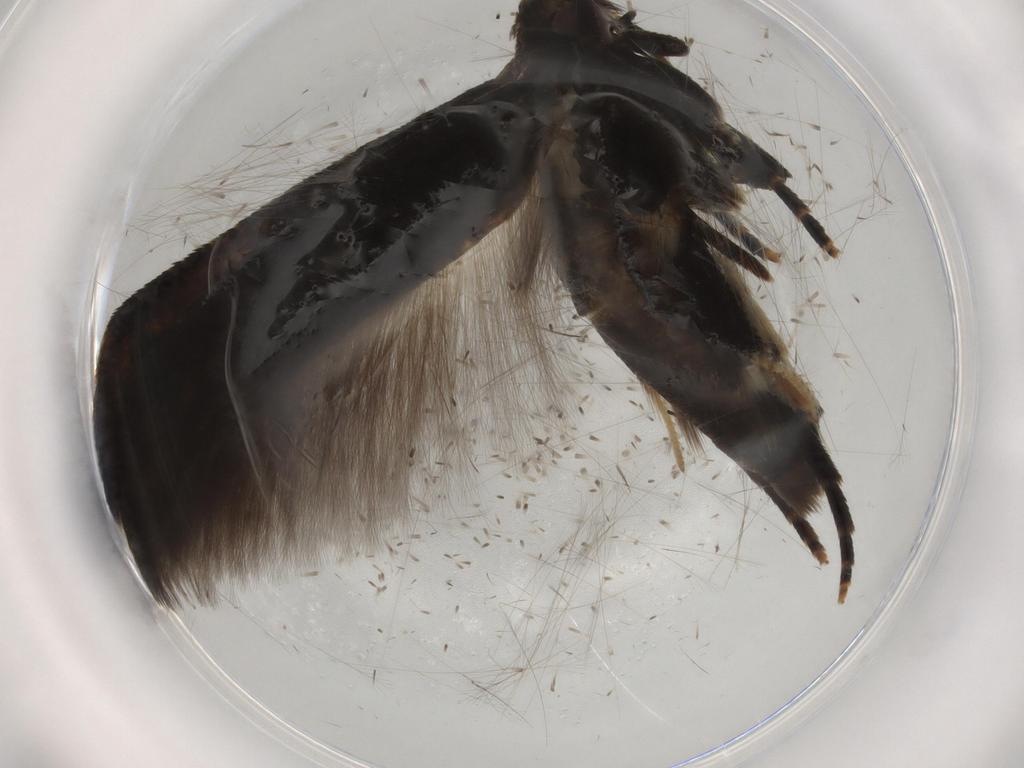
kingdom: Animalia
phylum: Arthropoda
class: Insecta
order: Lepidoptera
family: Cosmopterigidae
